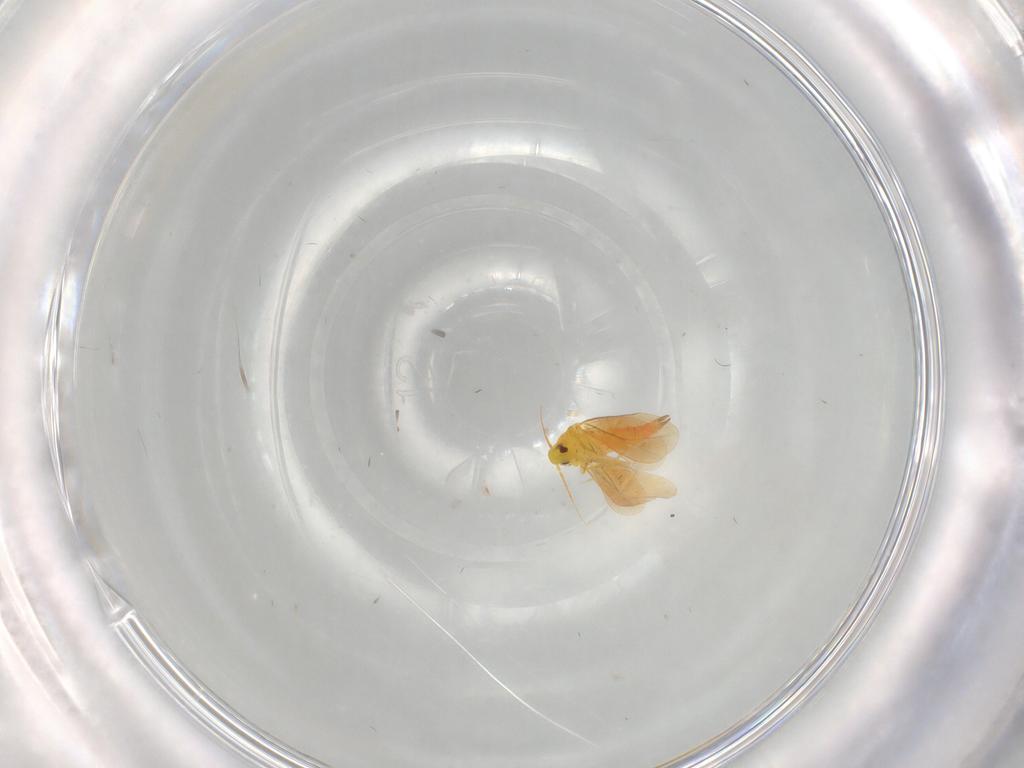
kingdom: Animalia
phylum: Arthropoda
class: Insecta
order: Hemiptera
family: Aleyrodidae
